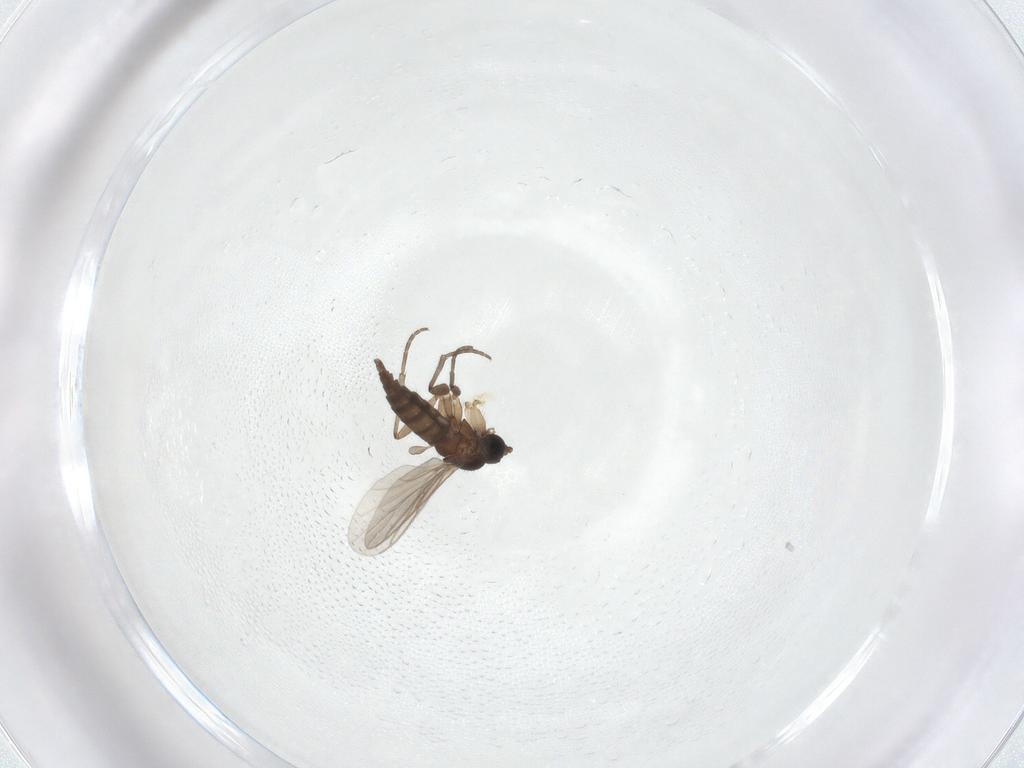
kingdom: Animalia
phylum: Arthropoda
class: Insecta
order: Diptera
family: Sciaridae
